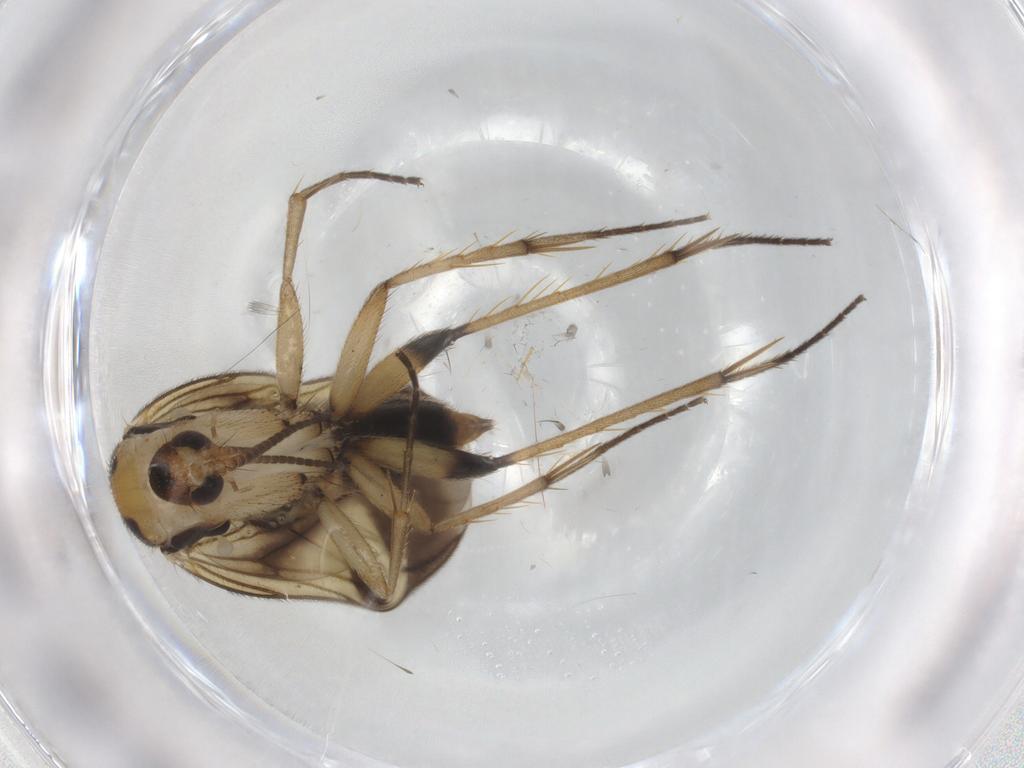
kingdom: Animalia
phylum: Arthropoda
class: Insecta
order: Diptera
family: Mycetophilidae
